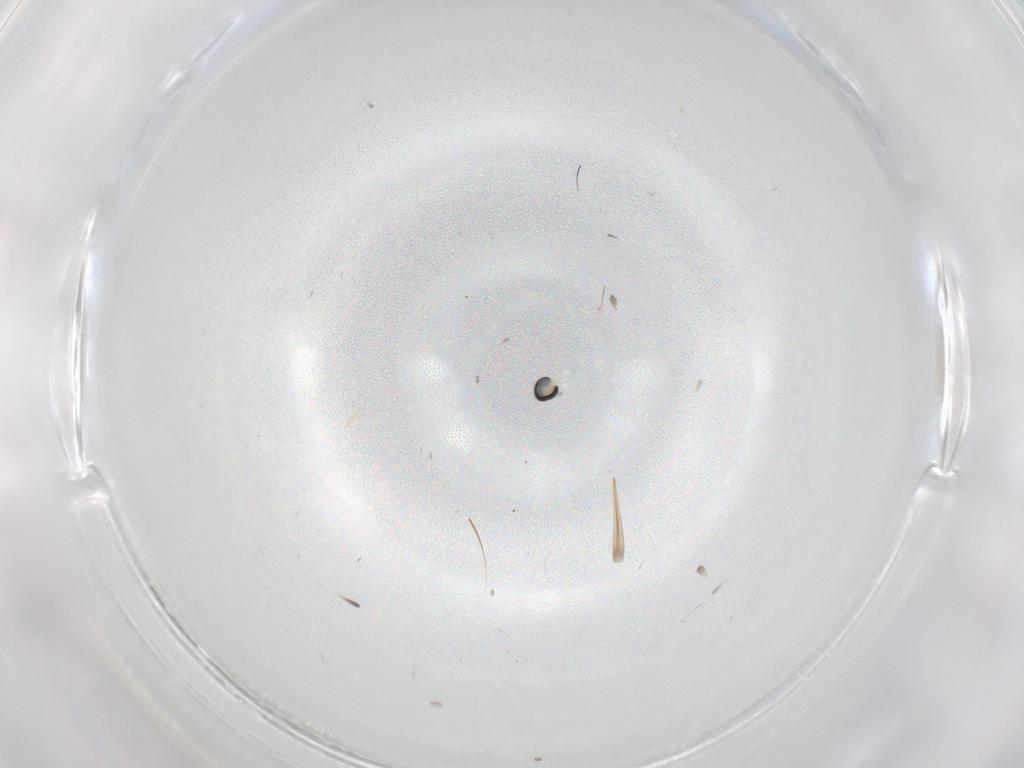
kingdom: Animalia
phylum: Arthropoda
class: Insecta
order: Diptera
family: Cecidomyiidae
